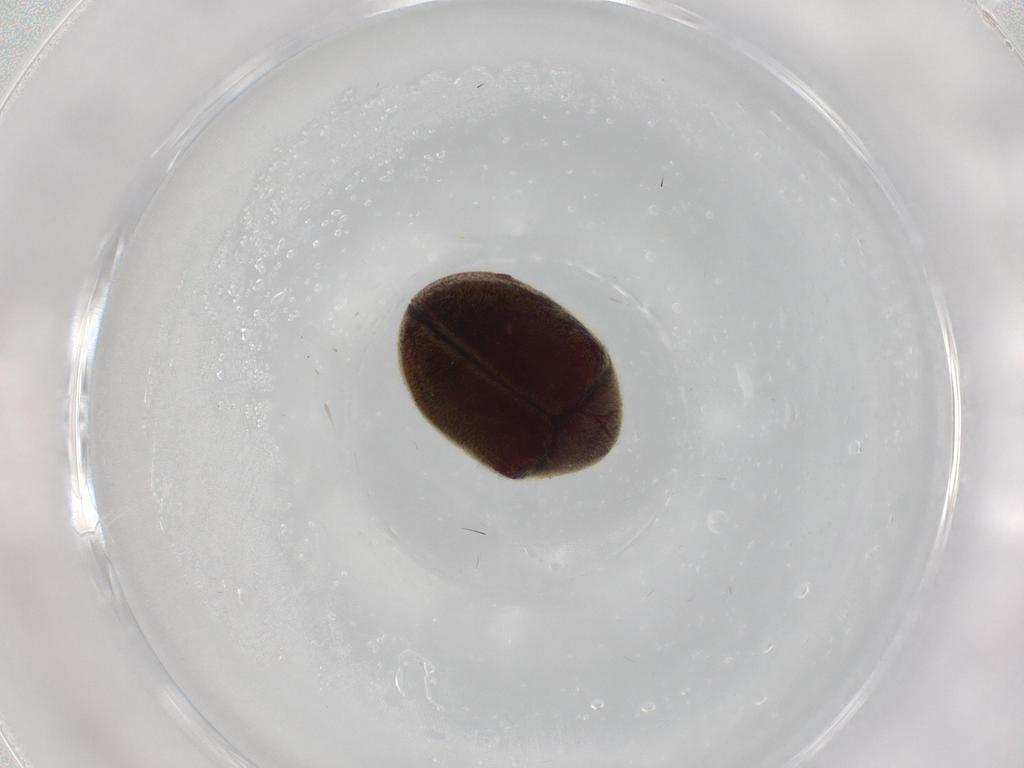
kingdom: Animalia
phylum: Arthropoda
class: Insecta
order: Coleoptera
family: Ptinidae
